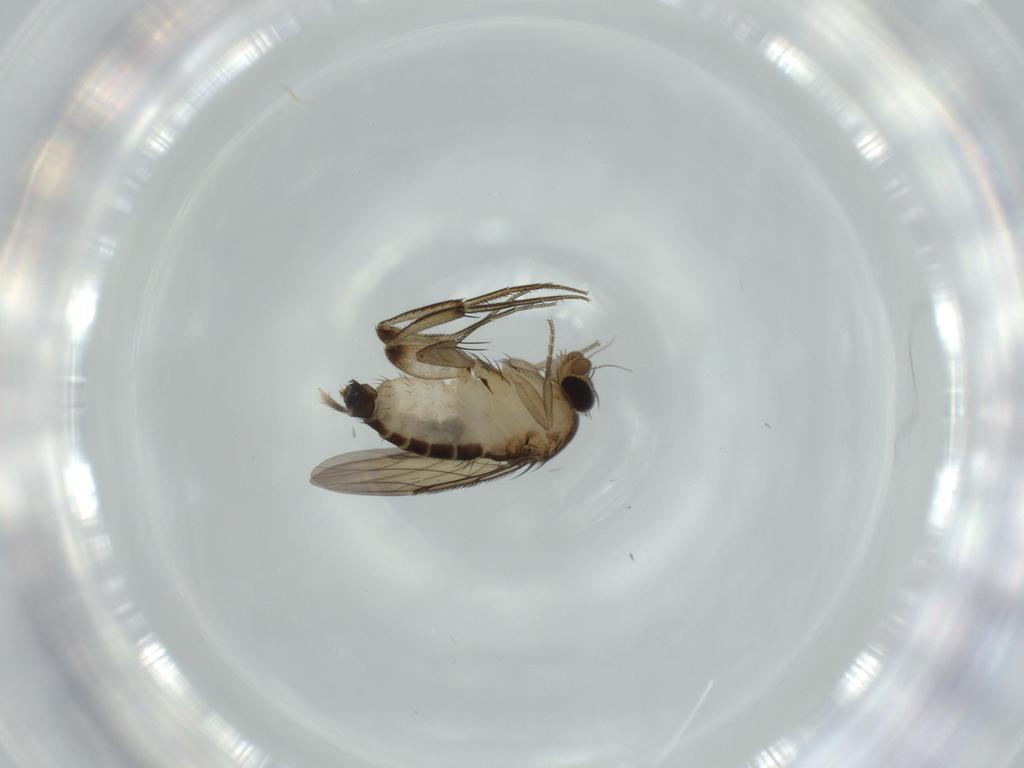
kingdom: Animalia
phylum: Arthropoda
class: Insecta
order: Diptera
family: Phoridae
